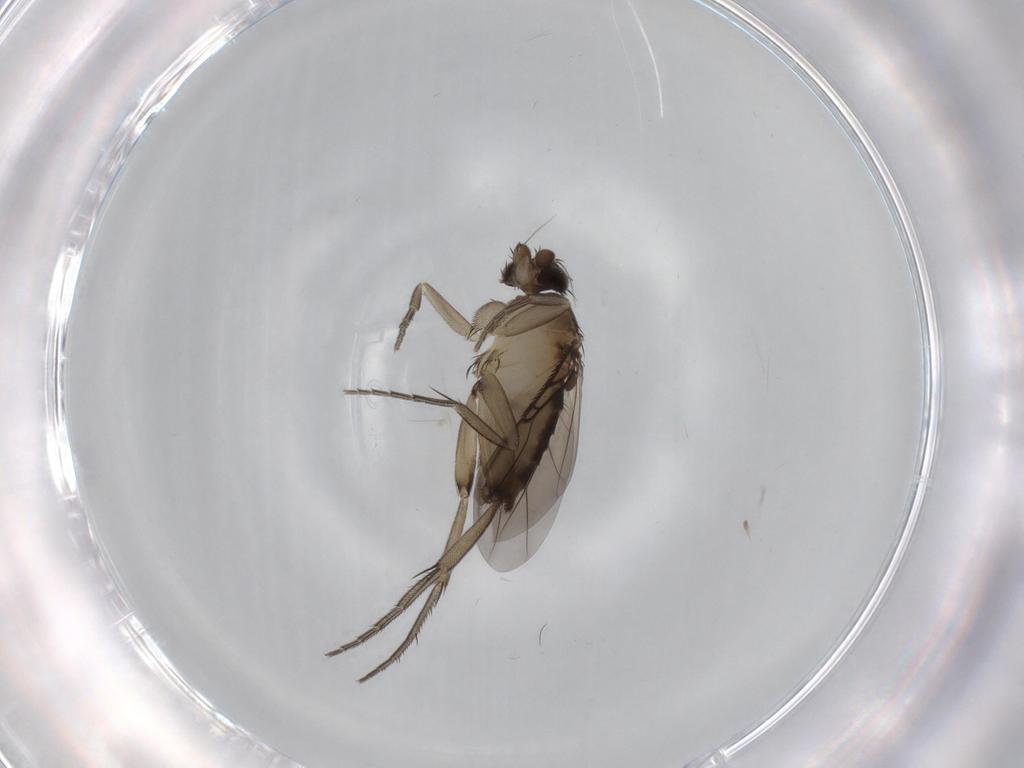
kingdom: Animalia
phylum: Arthropoda
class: Insecta
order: Diptera
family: Phoridae
